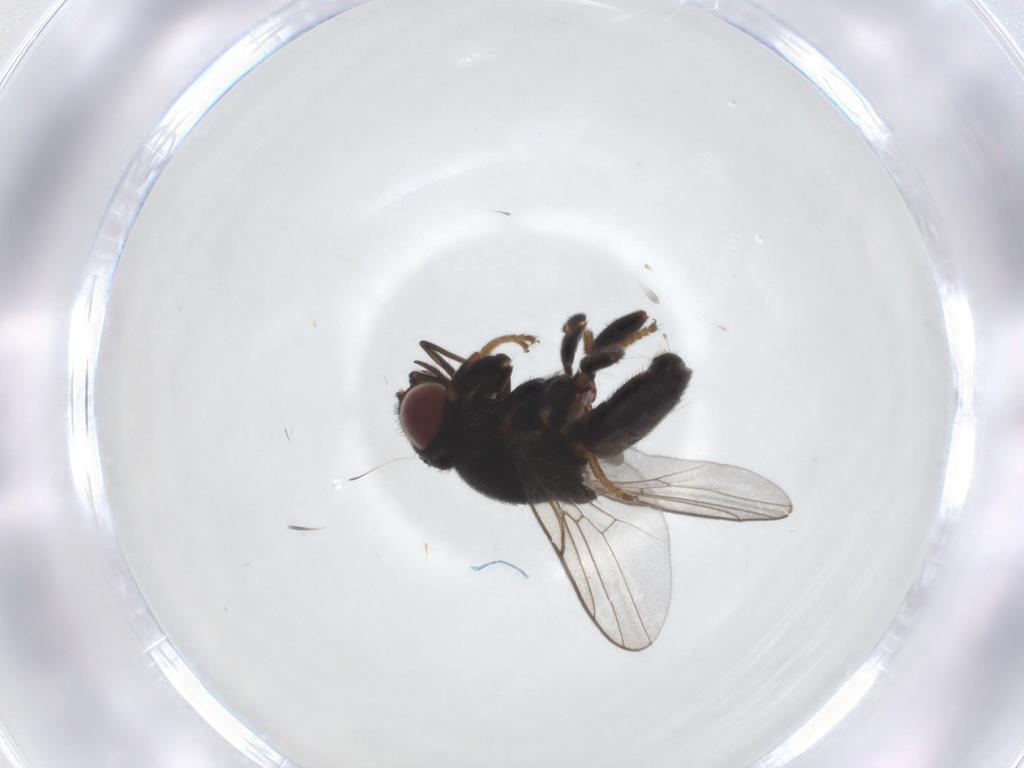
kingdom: Animalia
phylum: Arthropoda
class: Insecta
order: Diptera
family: Chloropidae
